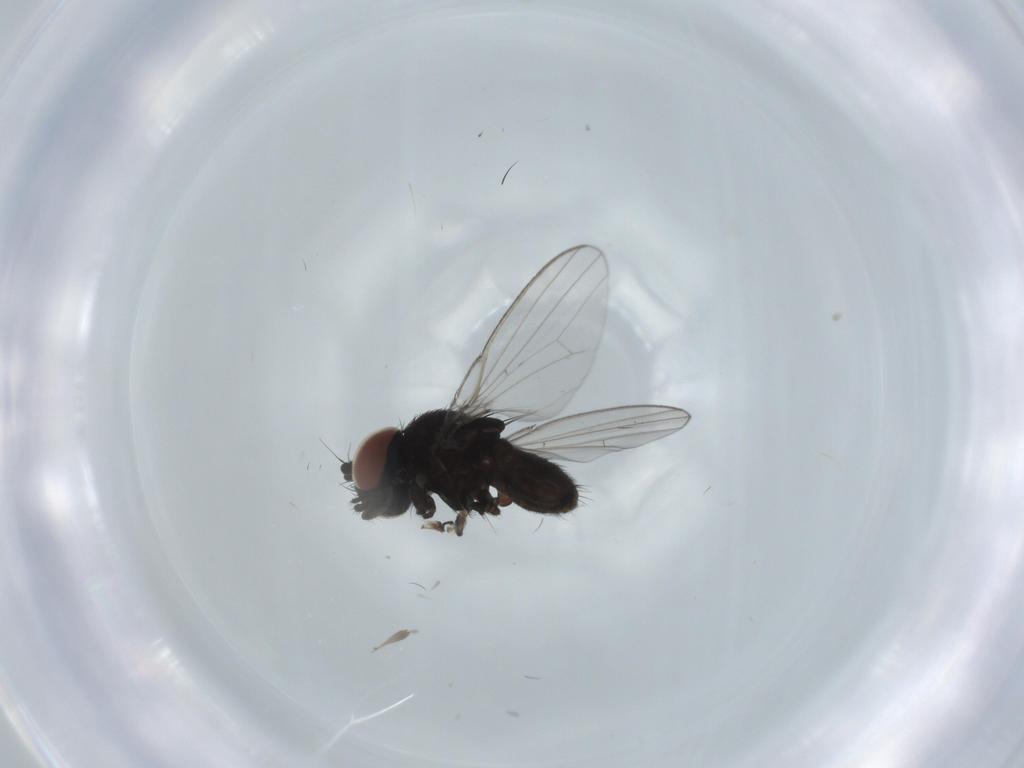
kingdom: Animalia
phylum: Arthropoda
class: Insecta
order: Diptera
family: Milichiidae
